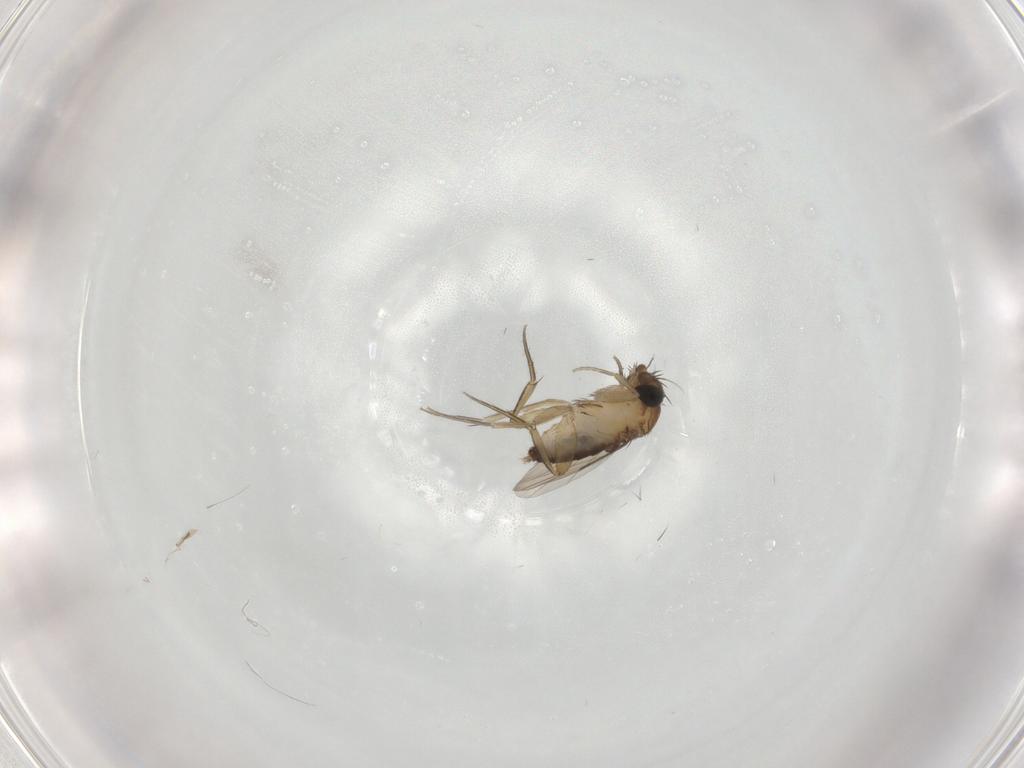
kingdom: Animalia
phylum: Arthropoda
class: Insecta
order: Diptera
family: Phoridae
